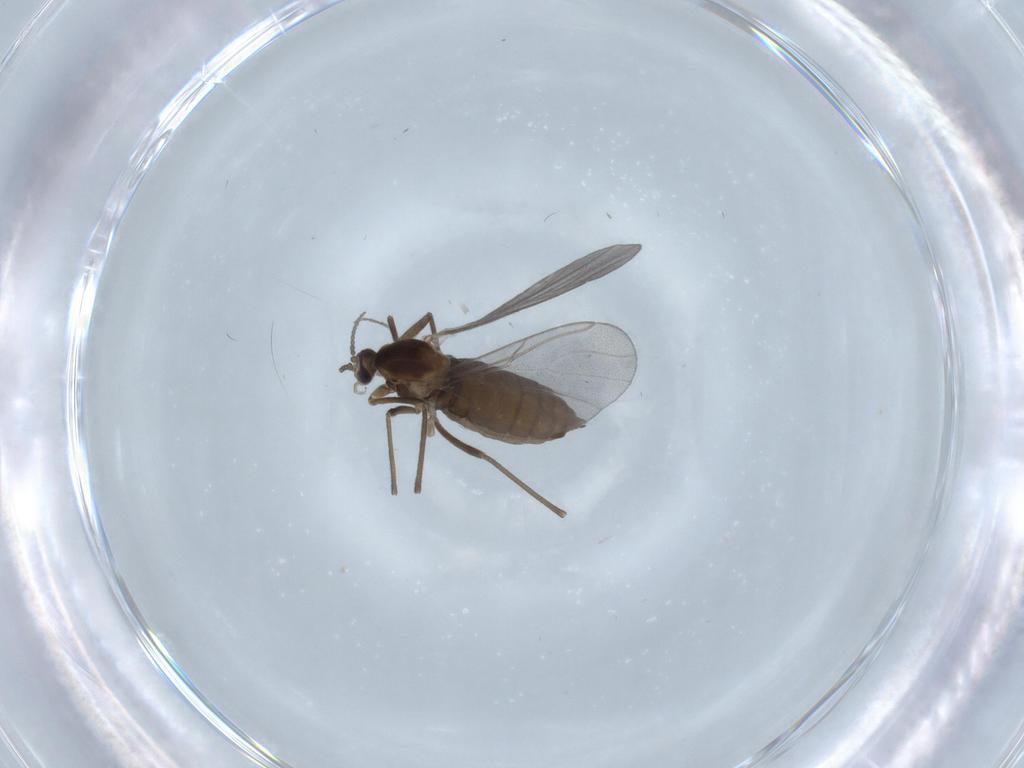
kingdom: Animalia
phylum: Arthropoda
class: Insecta
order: Diptera
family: Cecidomyiidae
